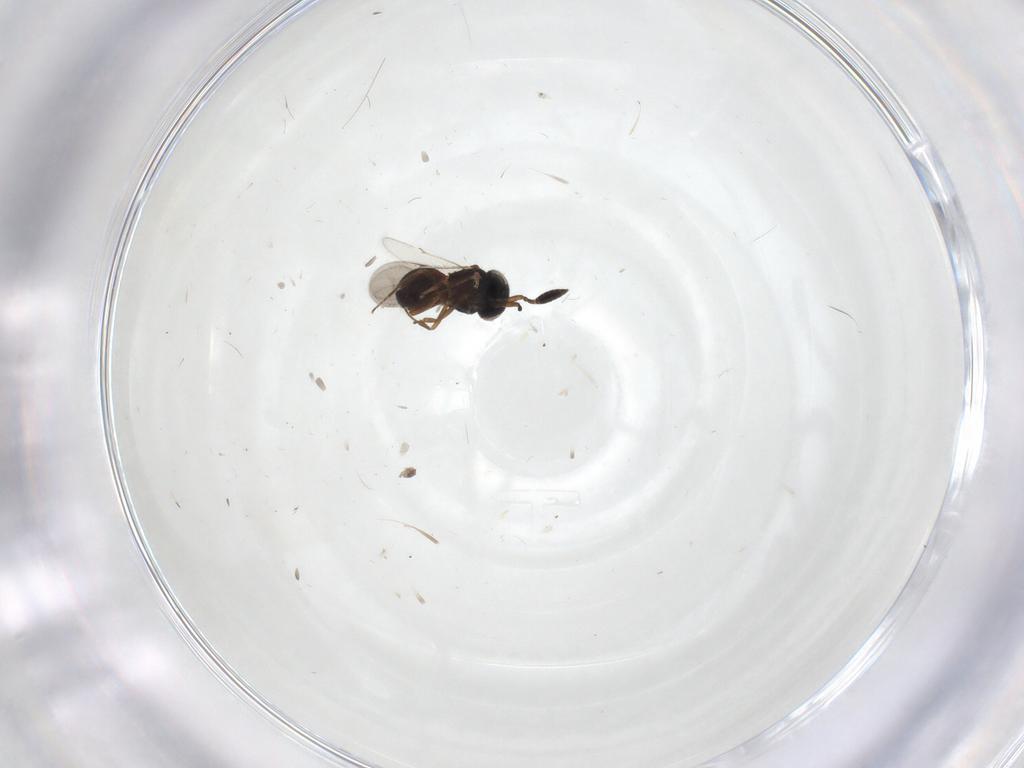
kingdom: Animalia
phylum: Arthropoda
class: Insecta
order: Hymenoptera
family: Scelionidae
